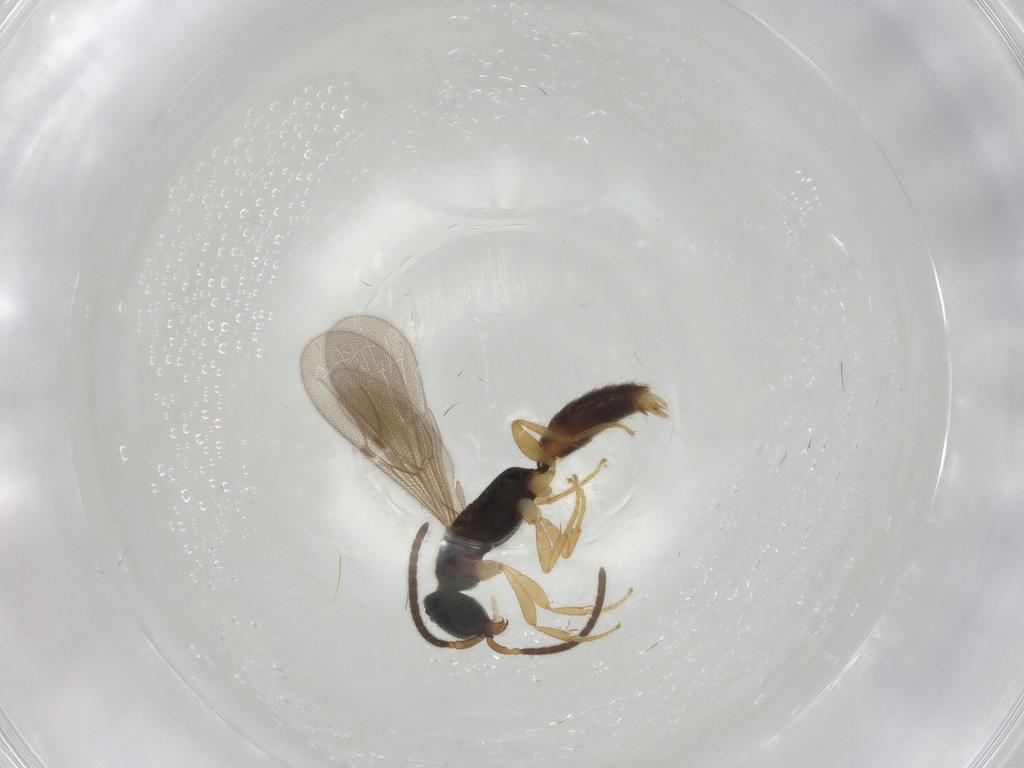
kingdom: Animalia
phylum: Arthropoda
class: Insecta
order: Hymenoptera
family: Bethylidae
